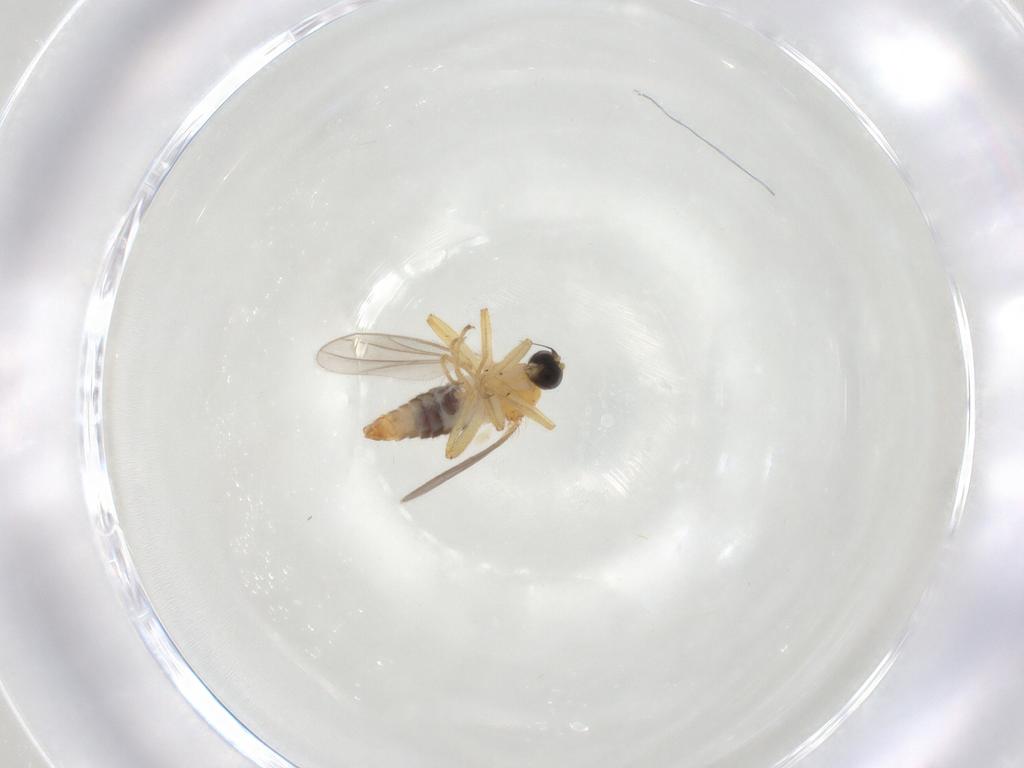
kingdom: Animalia
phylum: Arthropoda
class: Insecta
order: Diptera
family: Hybotidae
